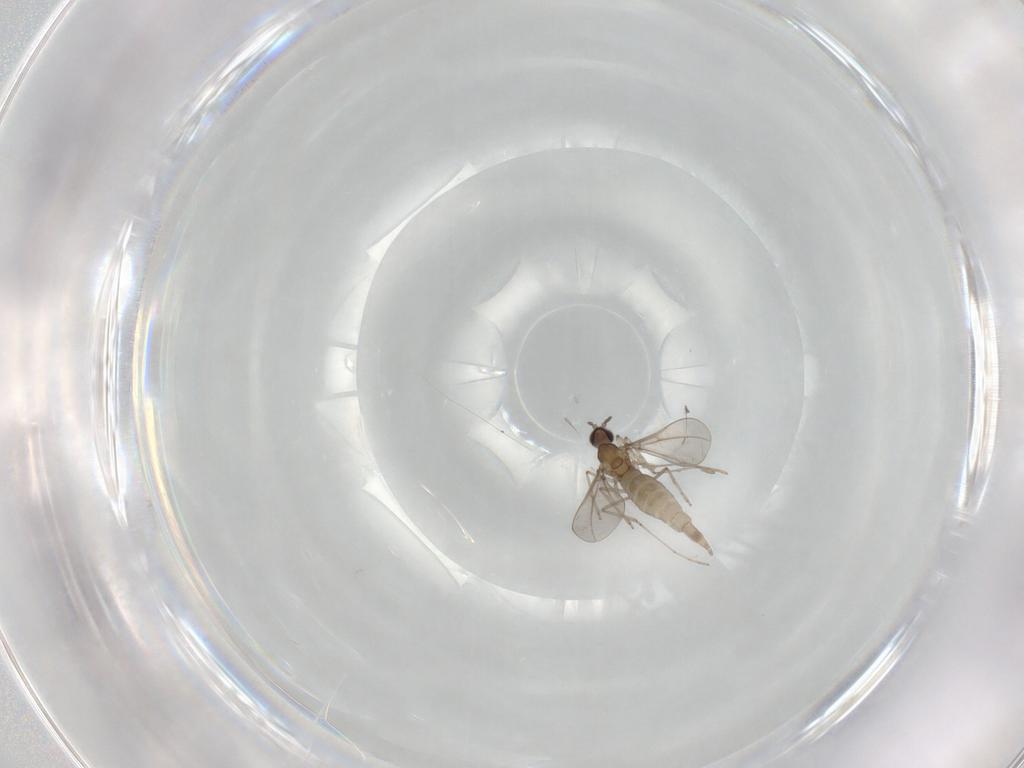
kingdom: Animalia
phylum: Arthropoda
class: Insecta
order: Diptera
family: Cecidomyiidae
